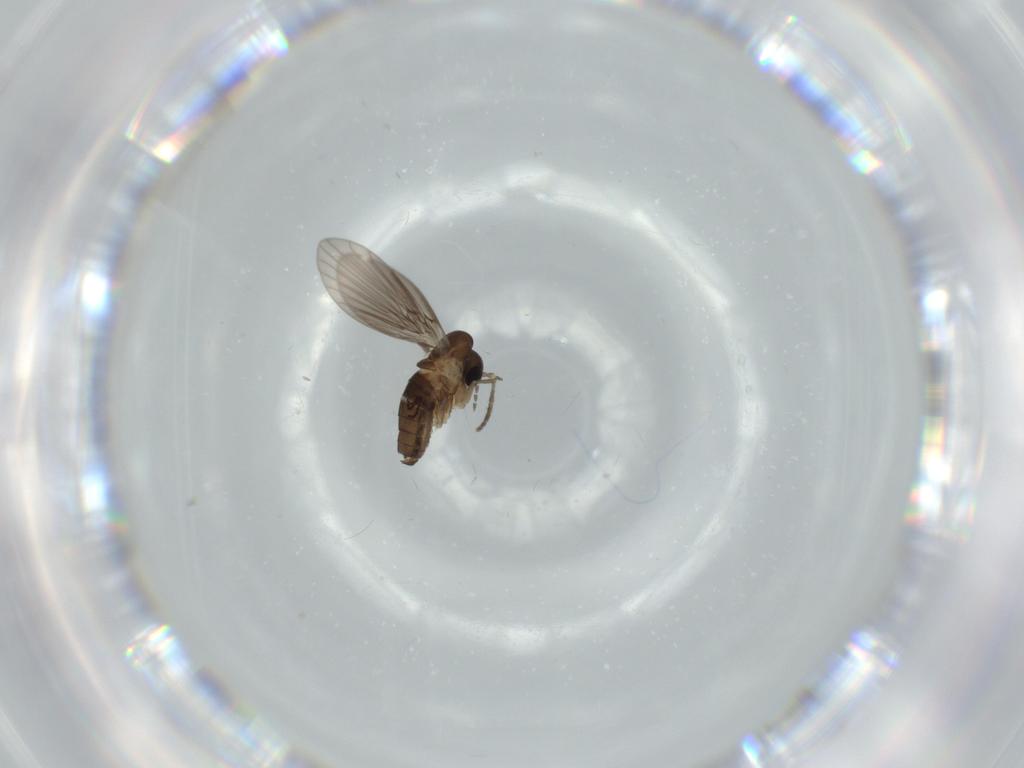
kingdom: Animalia
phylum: Arthropoda
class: Insecta
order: Diptera
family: Psychodidae
